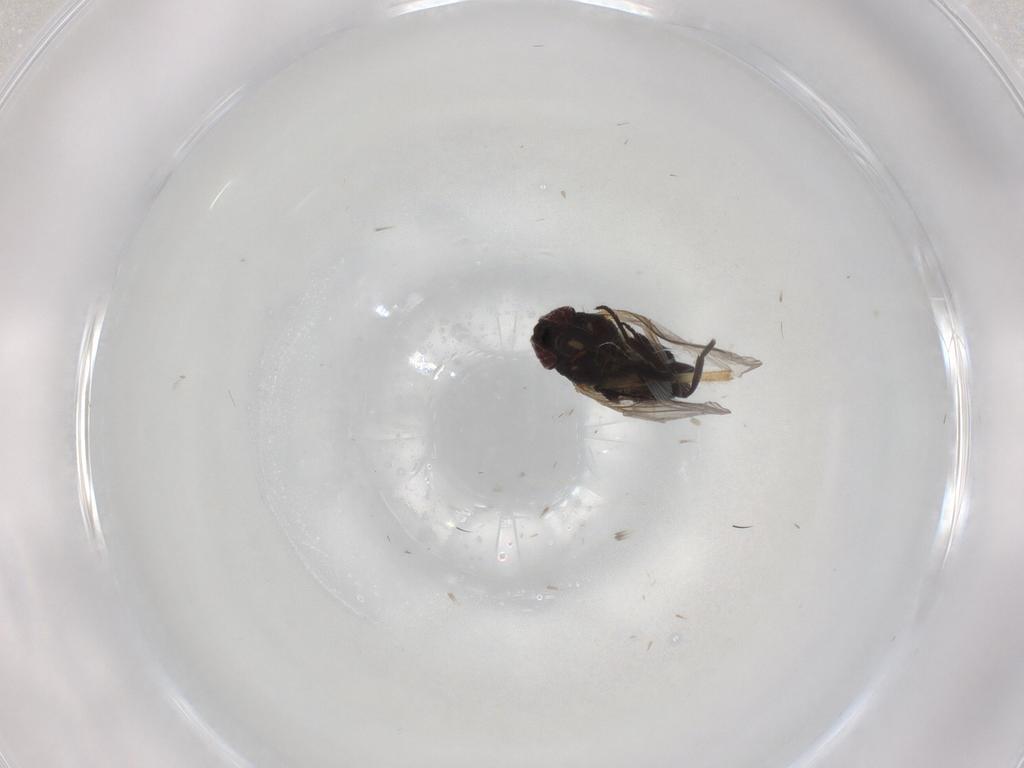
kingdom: Animalia
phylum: Arthropoda
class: Insecta
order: Diptera
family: Agromyzidae
